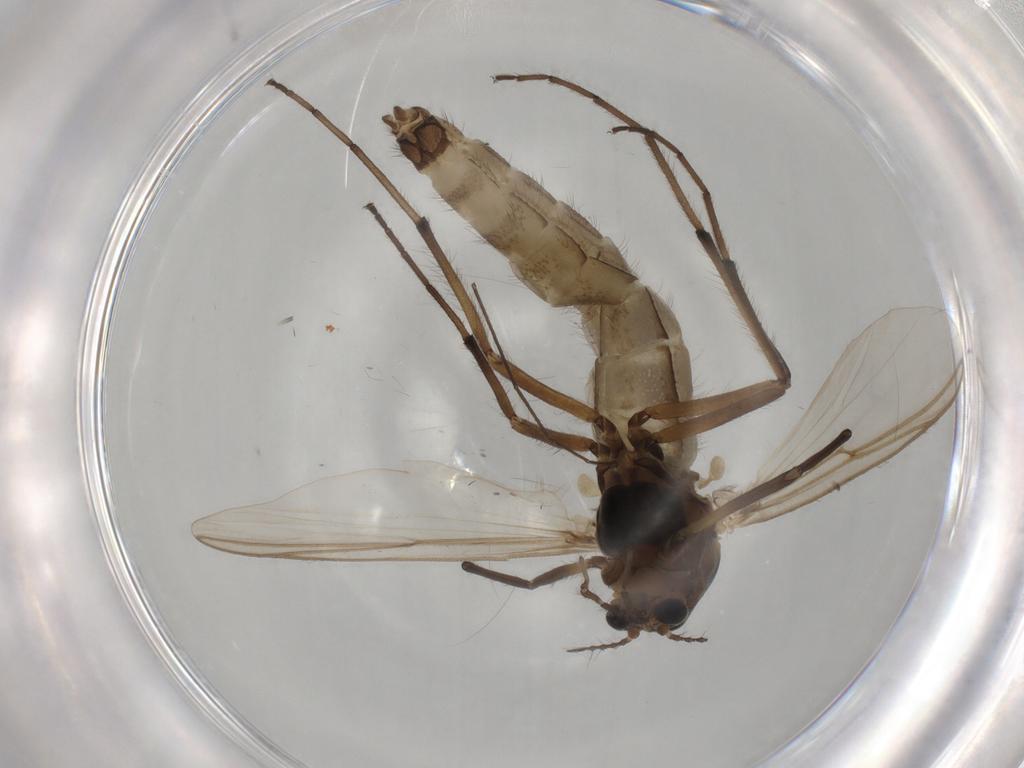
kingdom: Animalia
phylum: Arthropoda
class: Insecta
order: Diptera
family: Chironomidae
